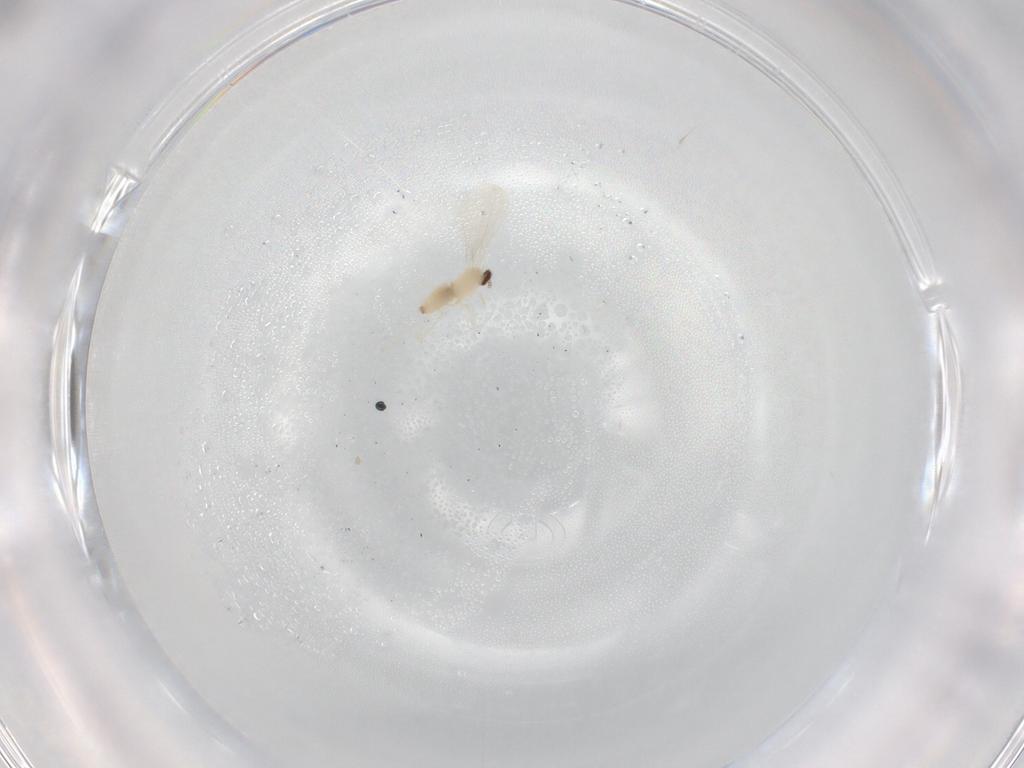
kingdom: Animalia
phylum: Arthropoda
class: Insecta
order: Diptera
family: Cecidomyiidae
